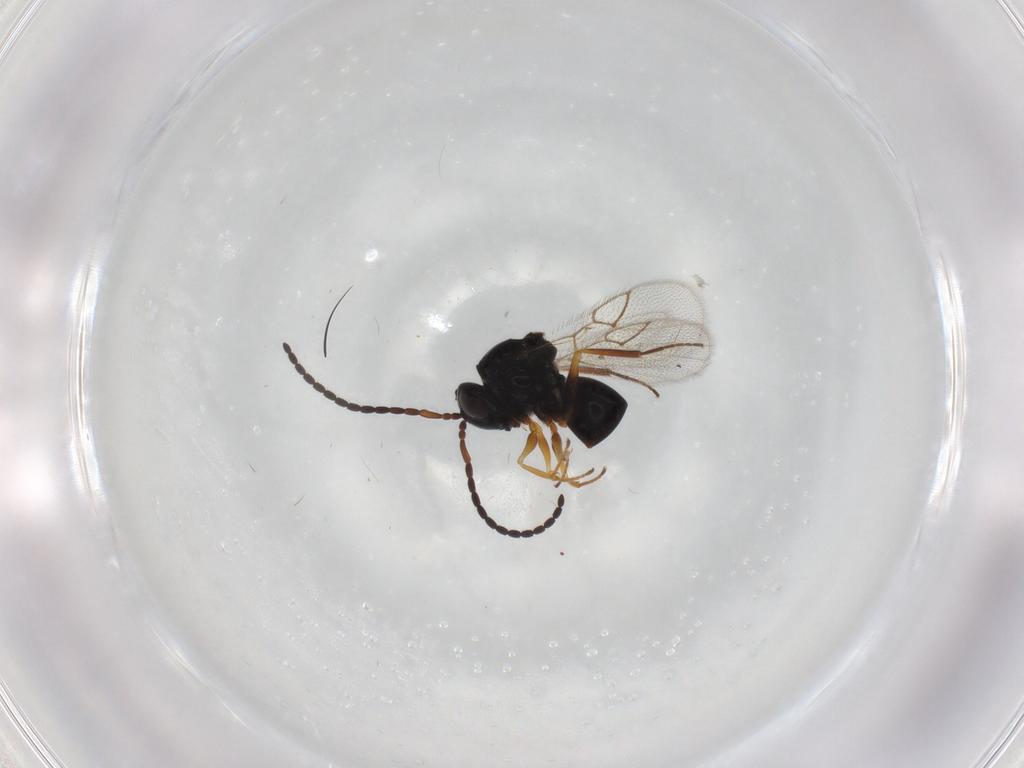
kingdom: Animalia
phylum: Arthropoda
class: Insecta
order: Hymenoptera
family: Figitidae
